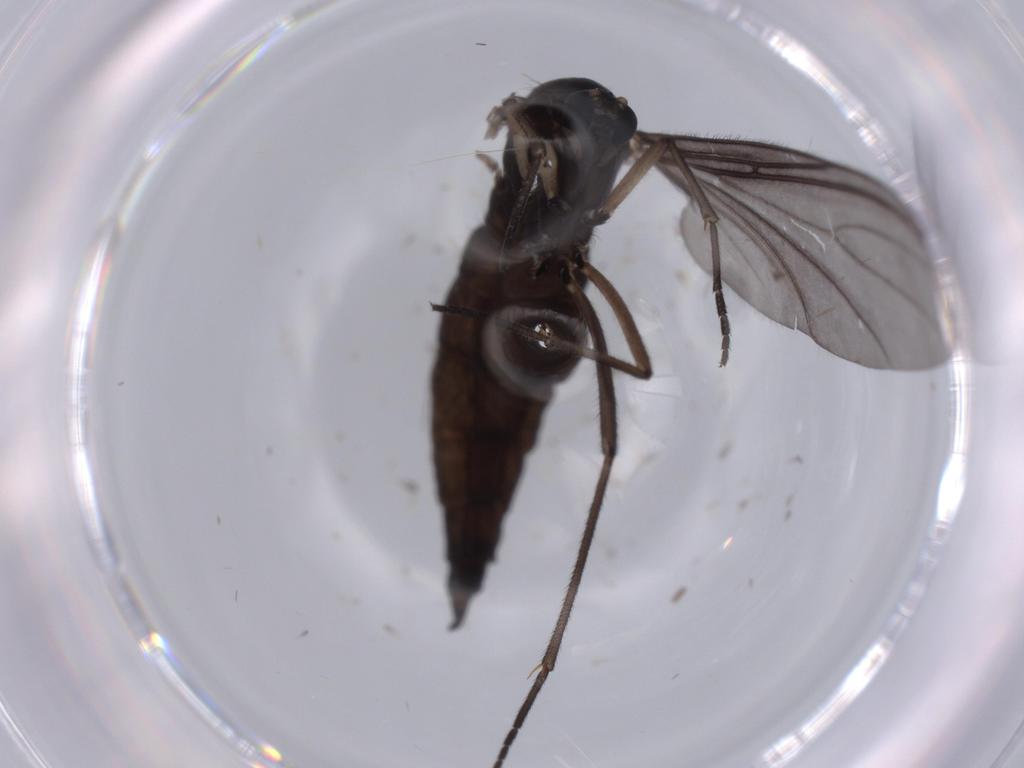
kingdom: Animalia
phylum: Arthropoda
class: Insecta
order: Diptera
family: Sciaridae
